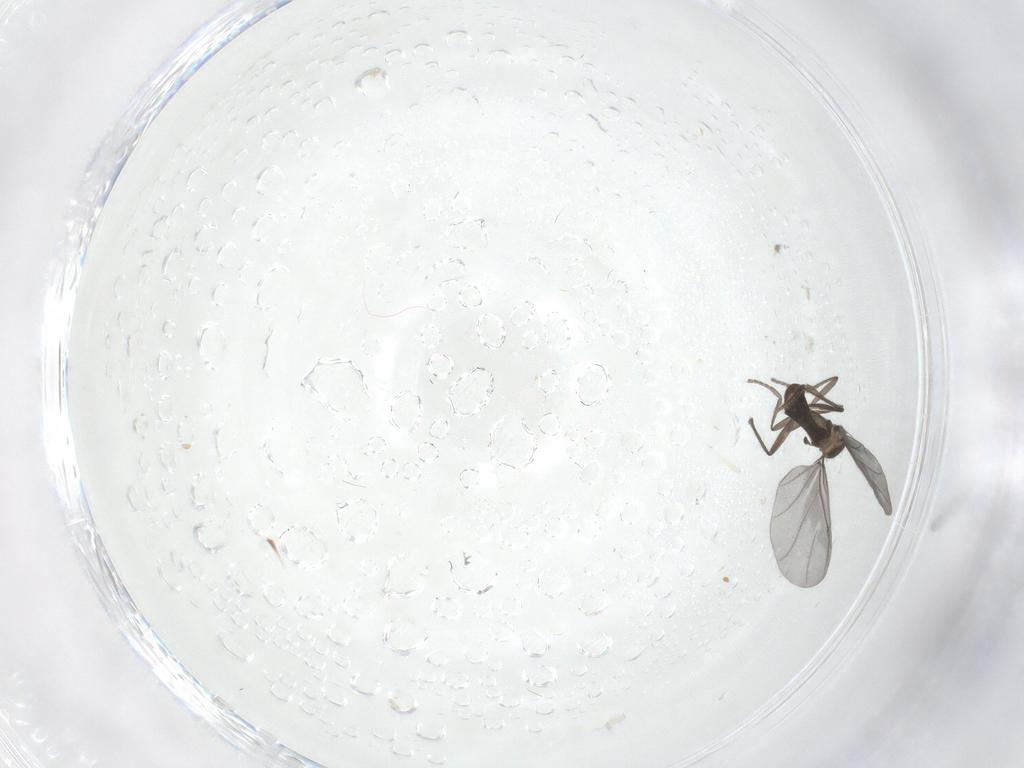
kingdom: Animalia
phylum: Arthropoda
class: Insecta
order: Diptera
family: Phoridae
